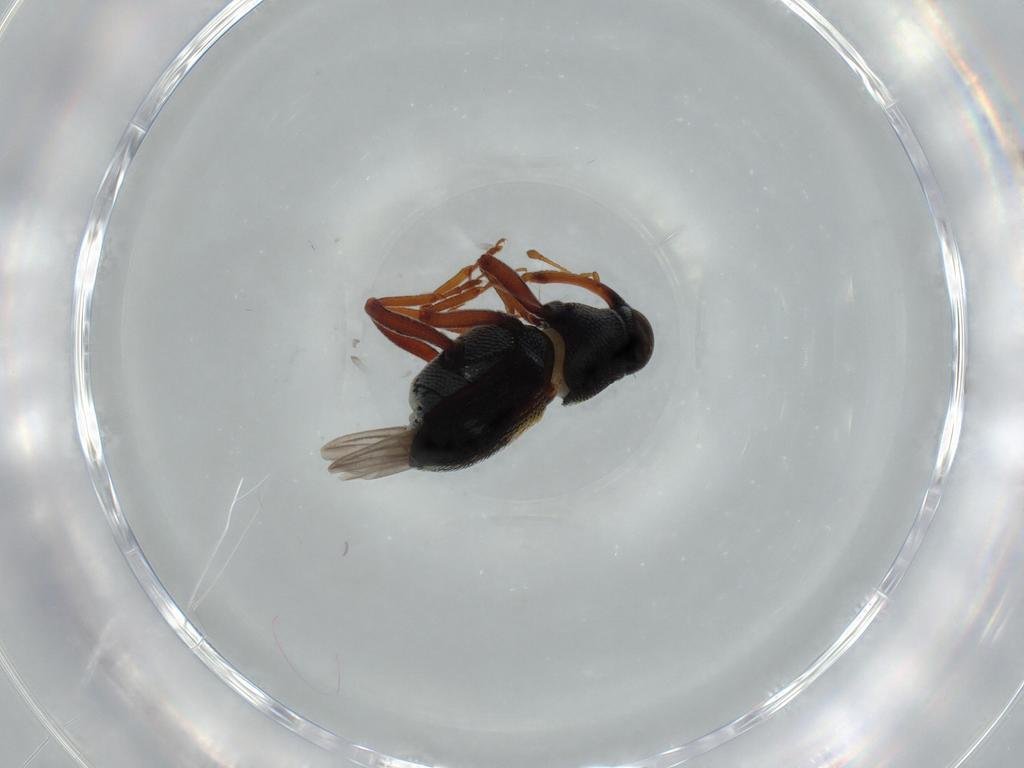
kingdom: Animalia
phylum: Arthropoda
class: Insecta
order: Coleoptera
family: Curculionidae
